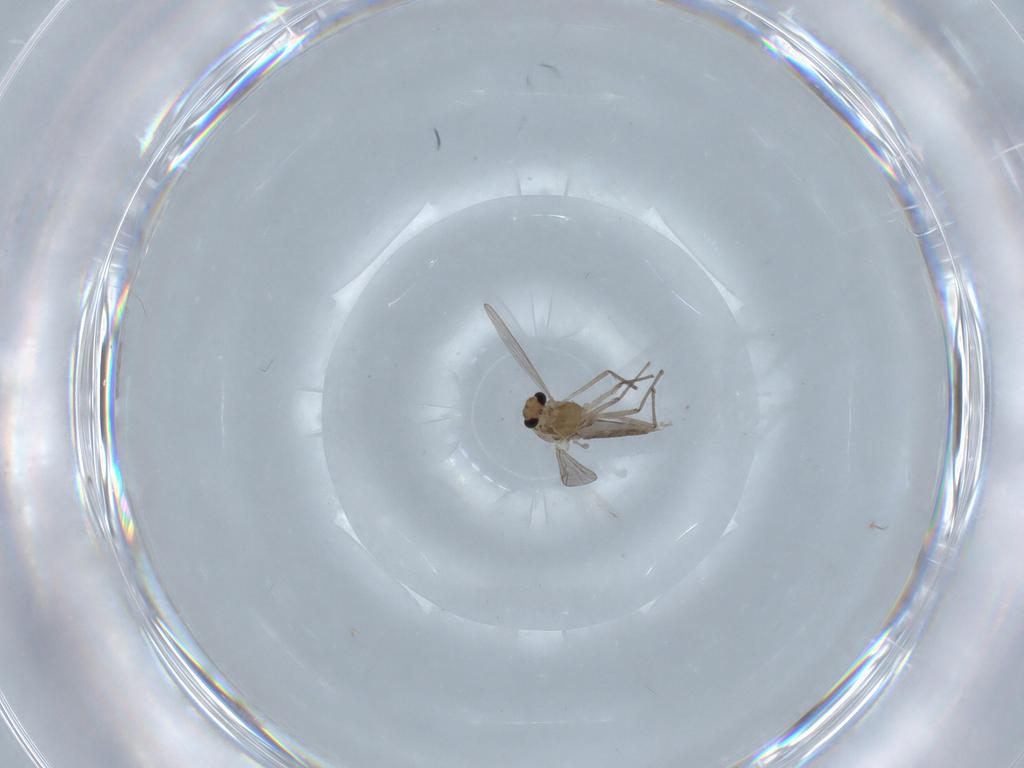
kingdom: Animalia
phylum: Arthropoda
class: Insecta
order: Diptera
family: Chironomidae
